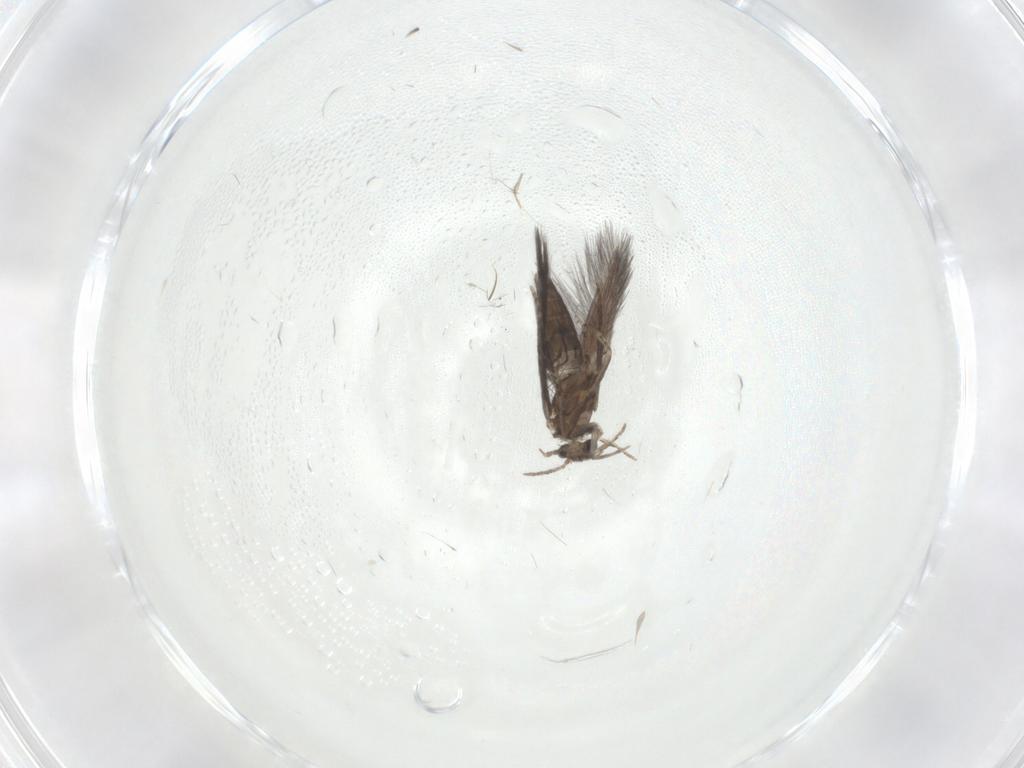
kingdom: Animalia
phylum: Arthropoda
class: Insecta
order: Trichoptera
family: Hydroptilidae
